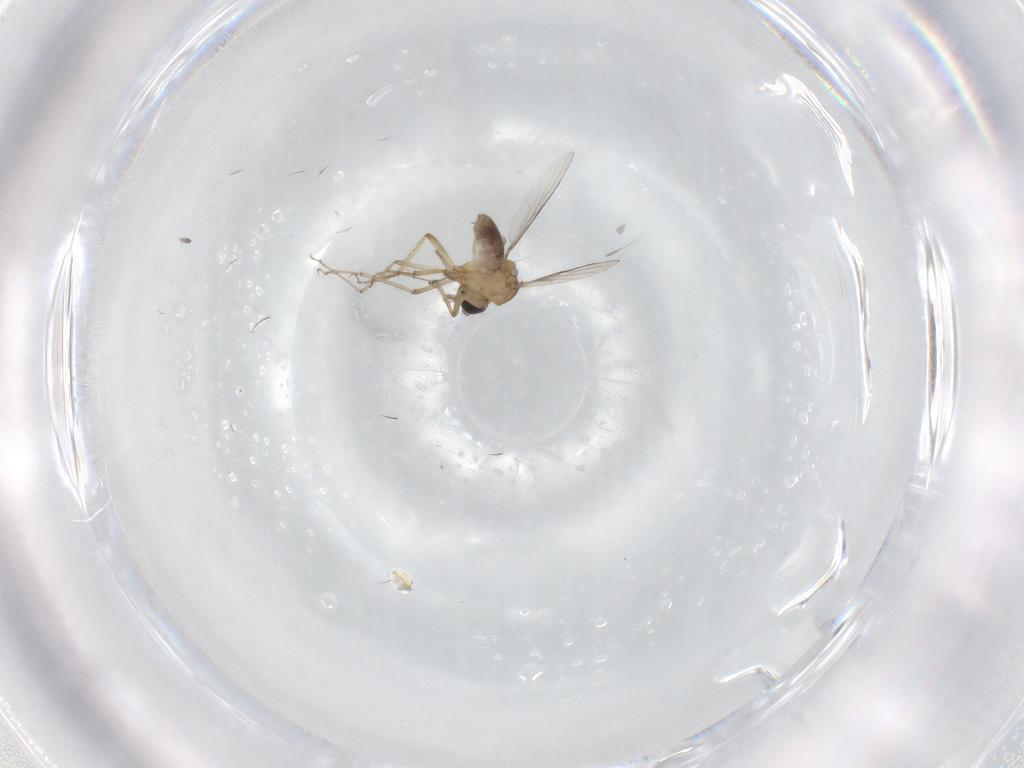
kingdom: Animalia
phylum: Arthropoda
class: Insecta
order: Diptera
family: Ceratopogonidae
